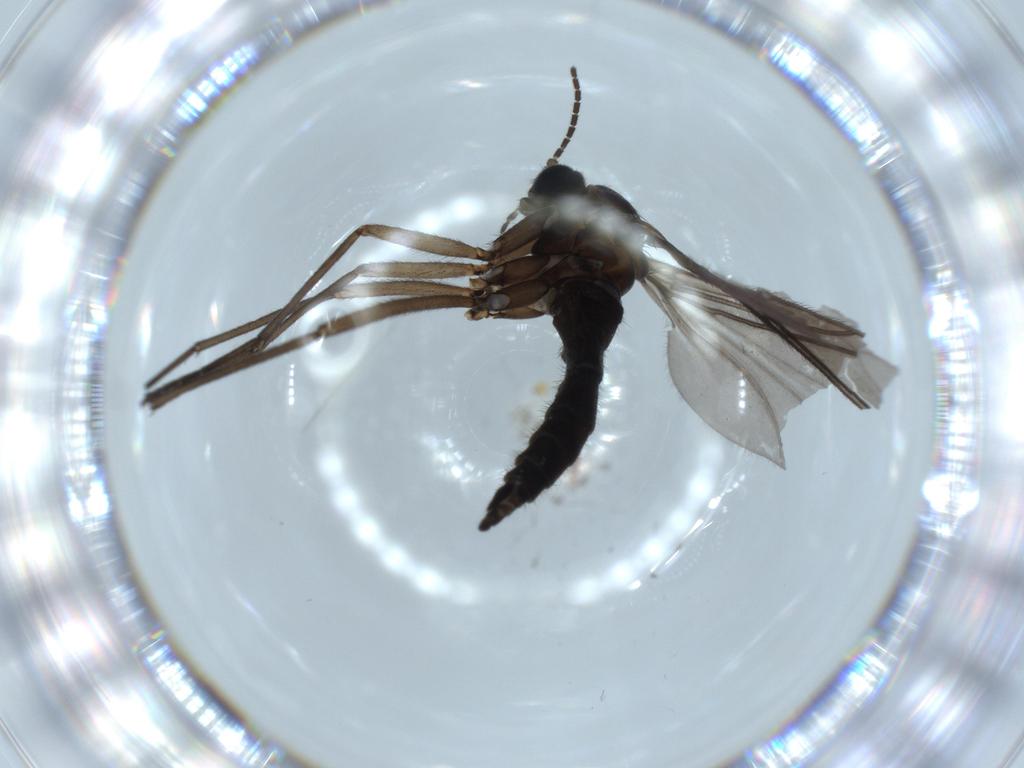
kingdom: Animalia
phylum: Arthropoda
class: Insecta
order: Diptera
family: Sciaridae
